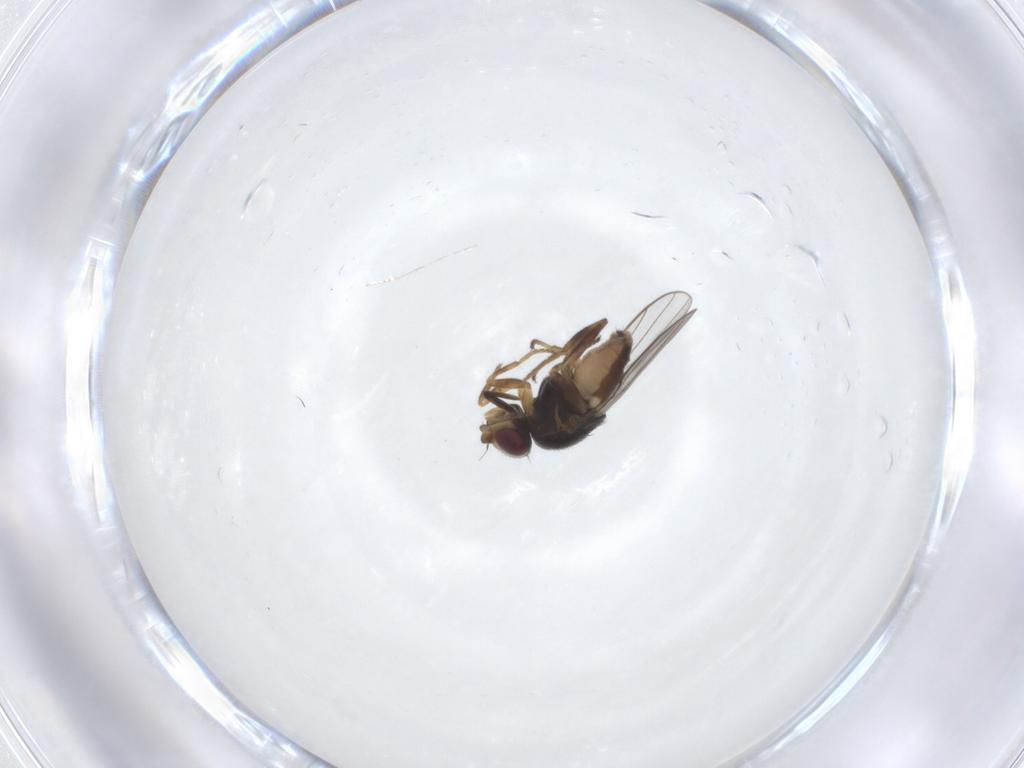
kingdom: Animalia
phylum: Arthropoda
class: Insecta
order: Diptera
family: Chloropidae
